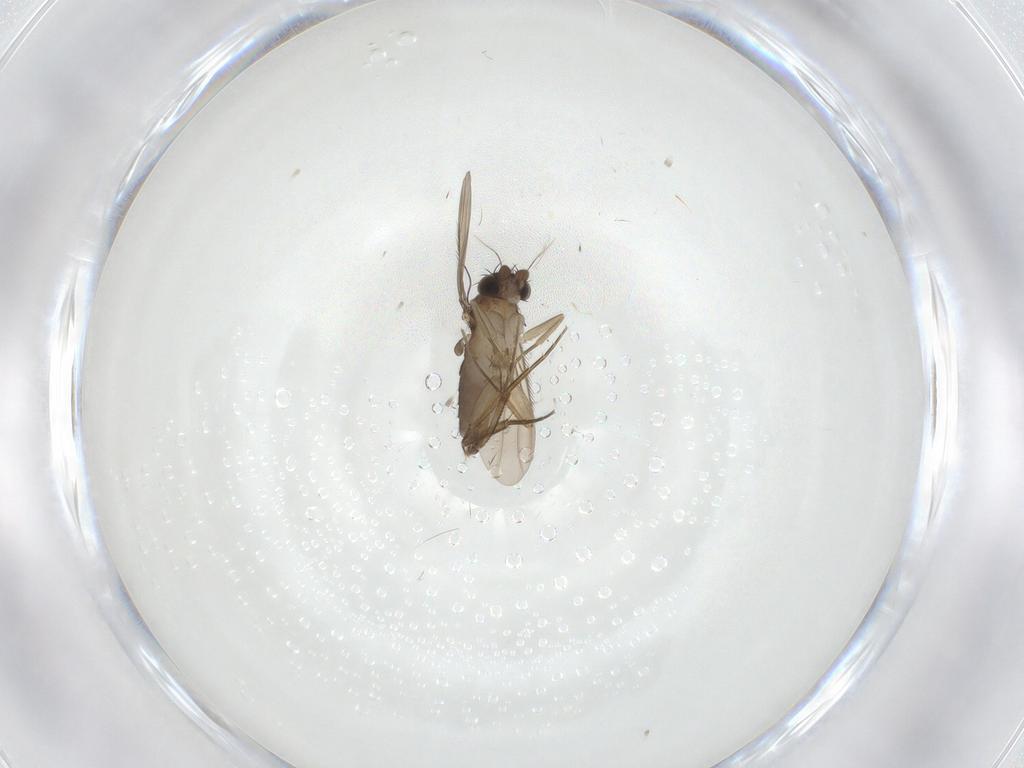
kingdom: Animalia
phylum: Arthropoda
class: Insecta
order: Diptera
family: Phoridae
